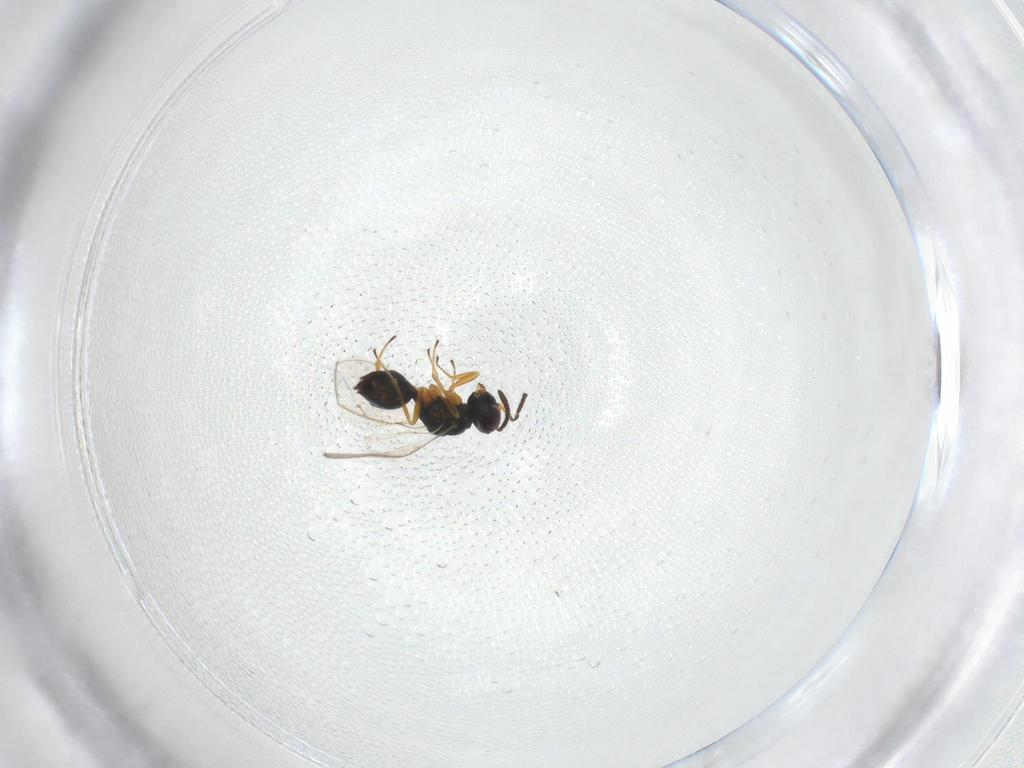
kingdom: Animalia
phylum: Arthropoda
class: Insecta
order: Hymenoptera
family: Pteromalidae
